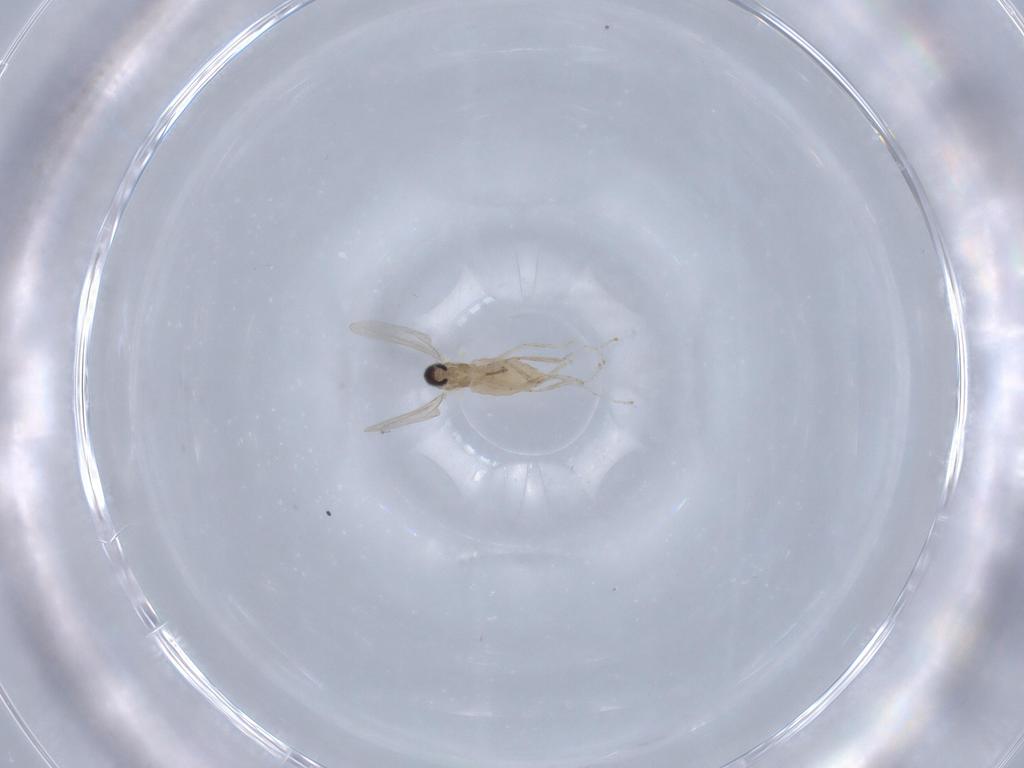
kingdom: Animalia
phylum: Arthropoda
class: Insecta
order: Diptera
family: Cecidomyiidae
